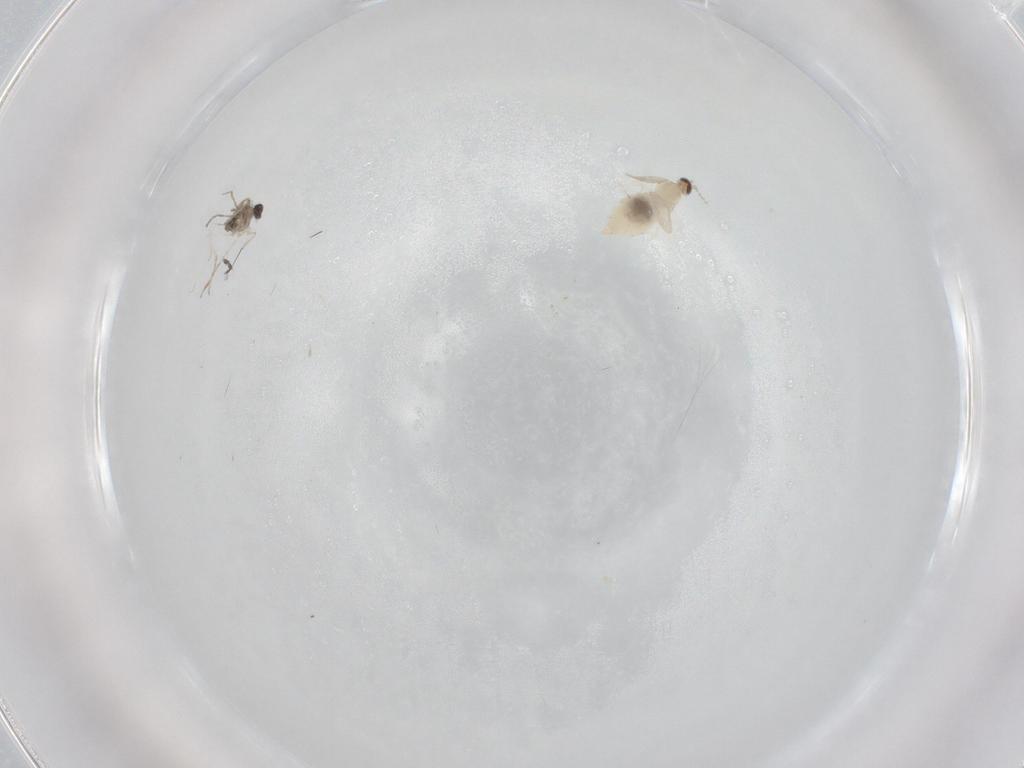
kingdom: Animalia
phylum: Arthropoda
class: Insecta
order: Diptera
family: Cecidomyiidae
